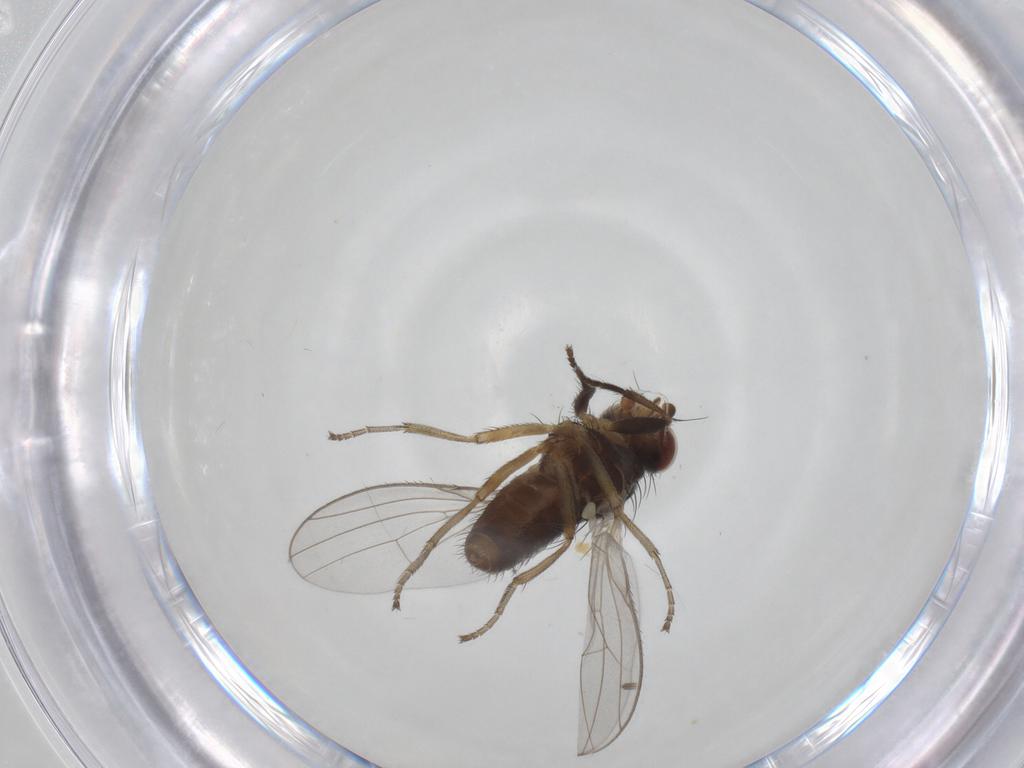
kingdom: Animalia
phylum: Arthropoda
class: Insecta
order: Diptera
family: Heleomyzidae
